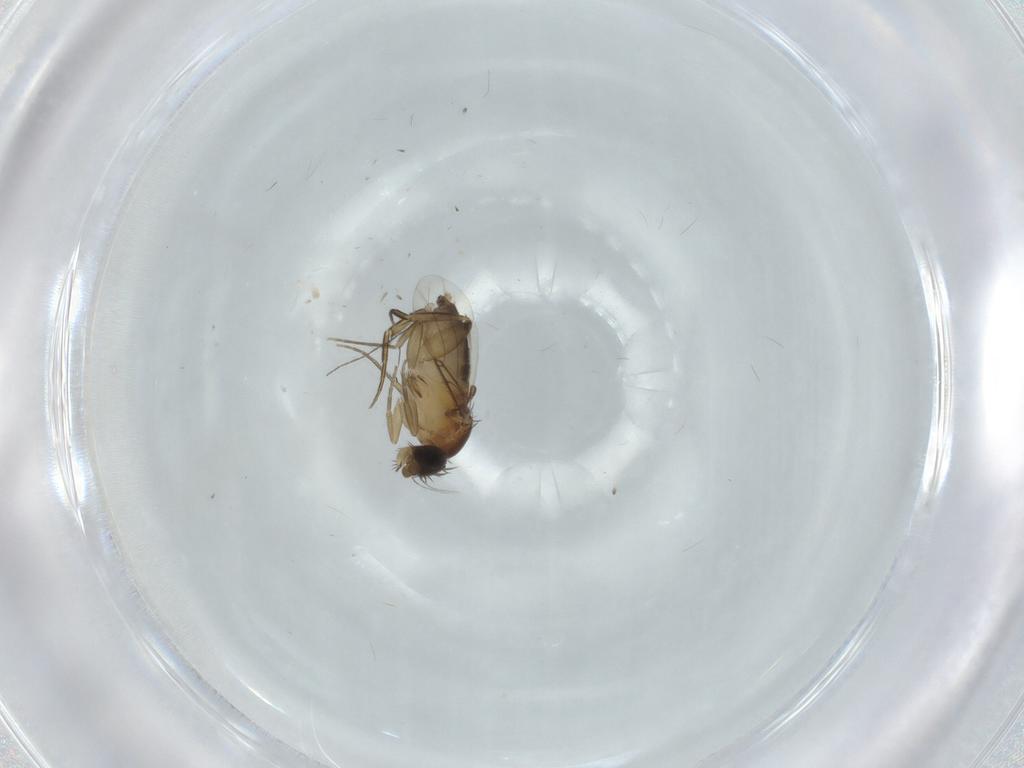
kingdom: Animalia
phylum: Arthropoda
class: Insecta
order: Diptera
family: Phoridae
